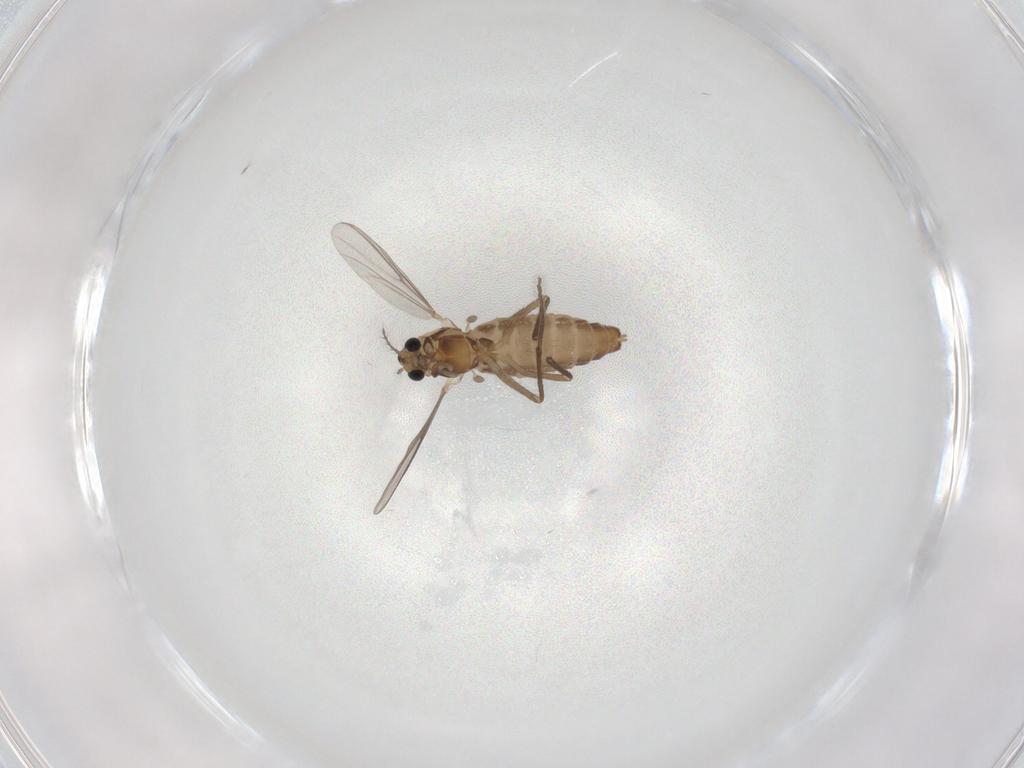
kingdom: Animalia
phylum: Arthropoda
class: Insecta
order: Diptera
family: Chironomidae
